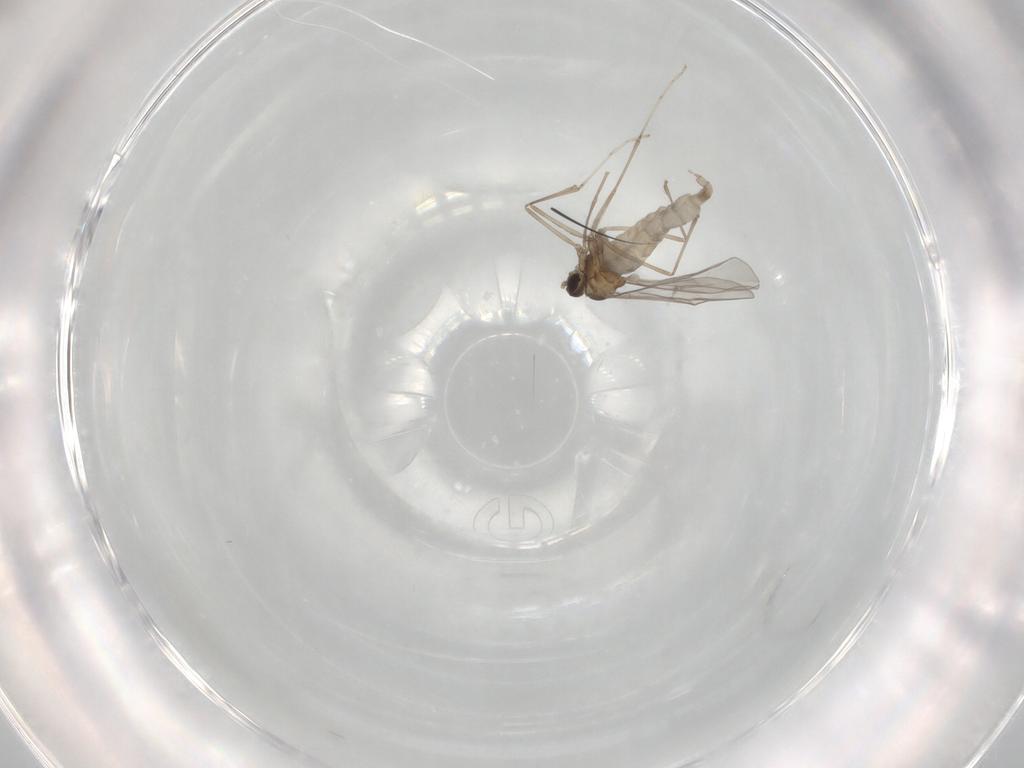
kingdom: Animalia
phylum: Arthropoda
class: Insecta
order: Diptera
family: Cecidomyiidae
